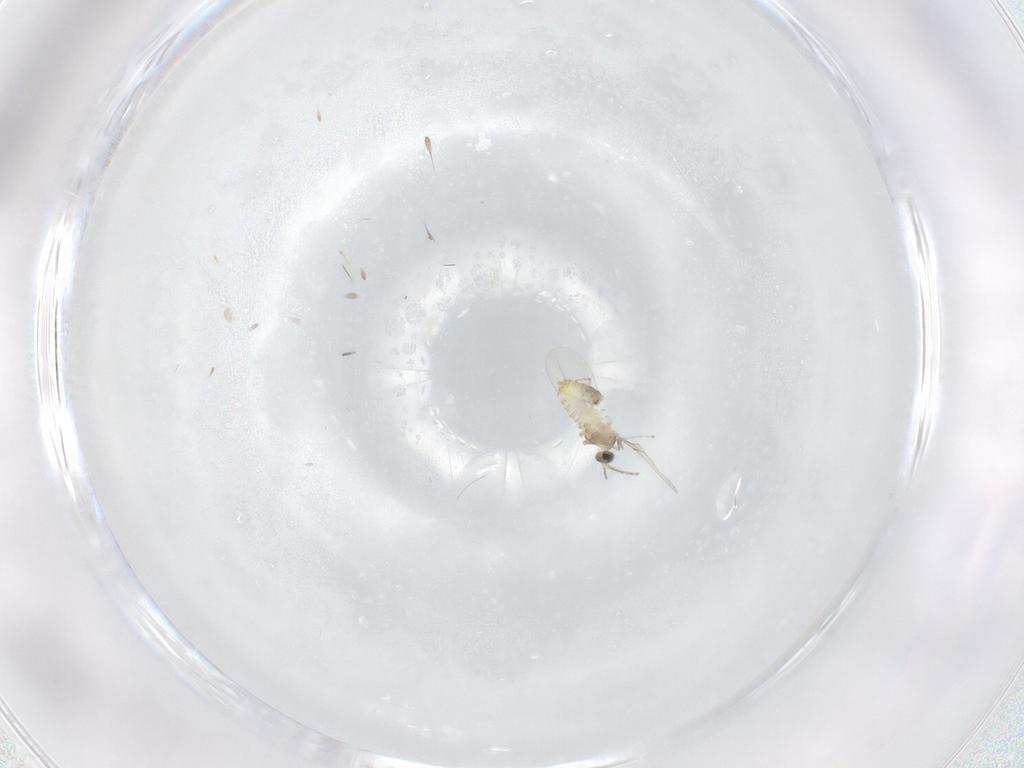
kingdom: Animalia
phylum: Arthropoda
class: Insecta
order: Diptera
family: Cecidomyiidae
